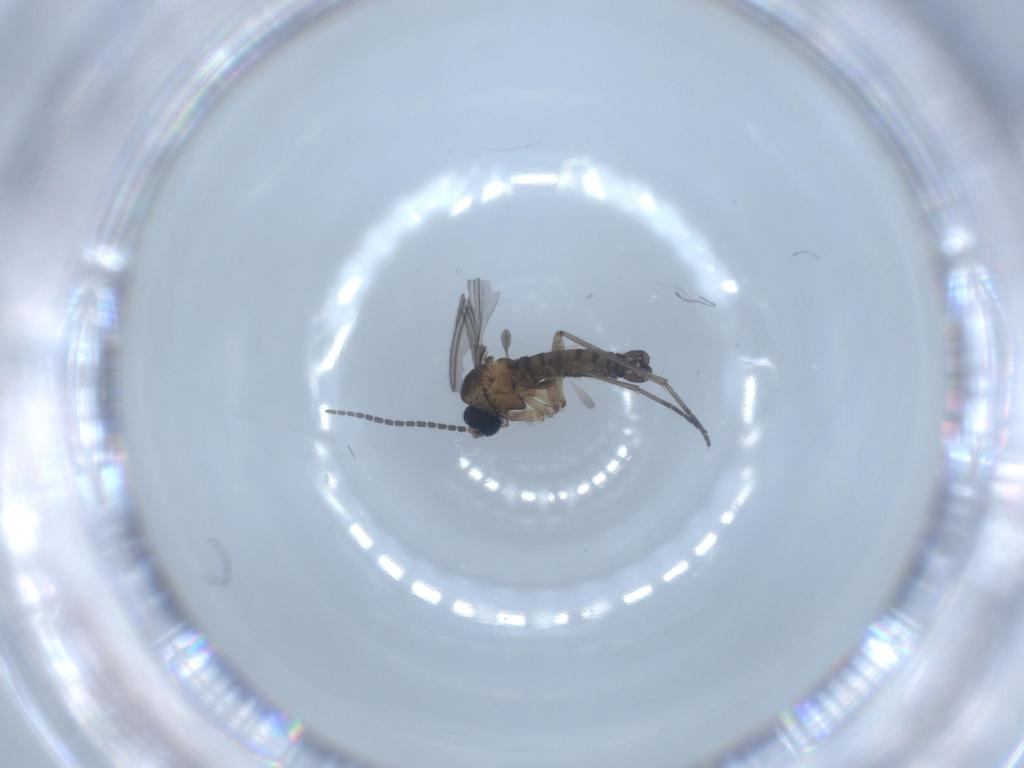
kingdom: Animalia
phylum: Arthropoda
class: Insecta
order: Diptera
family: Sciaridae
